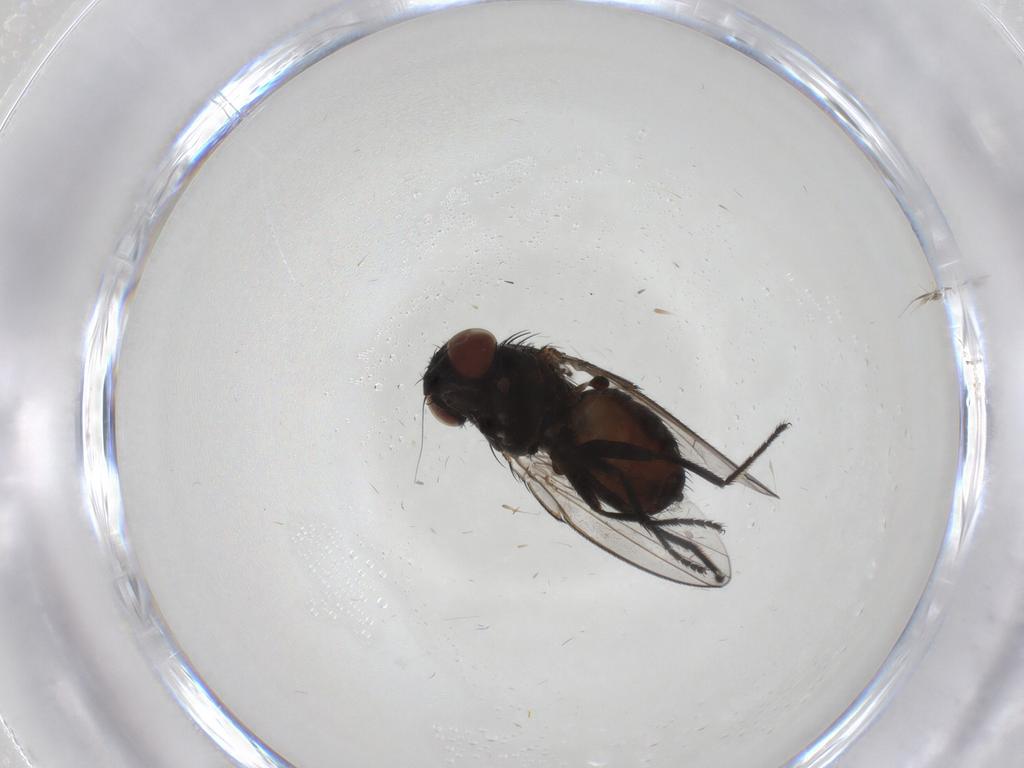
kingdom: Animalia
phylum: Arthropoda
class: Insecta
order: Diptera
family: Milichiidae
